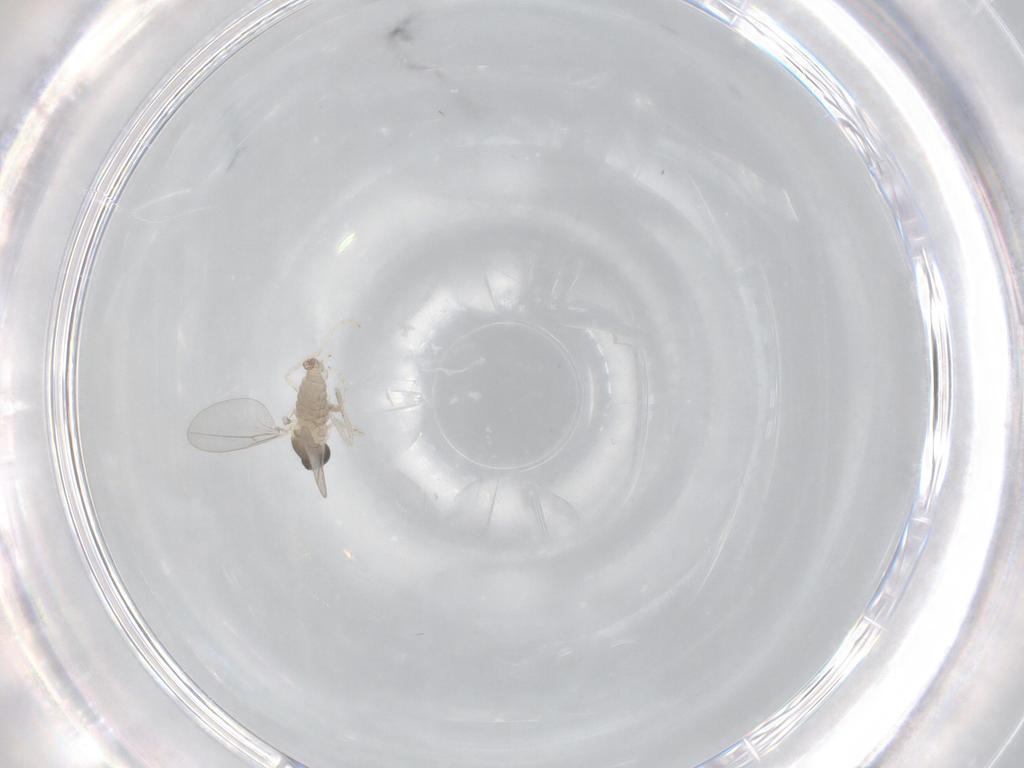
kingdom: Animalia
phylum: Arthropoda
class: Insecta
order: Diptera
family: Cecidomyiidae
